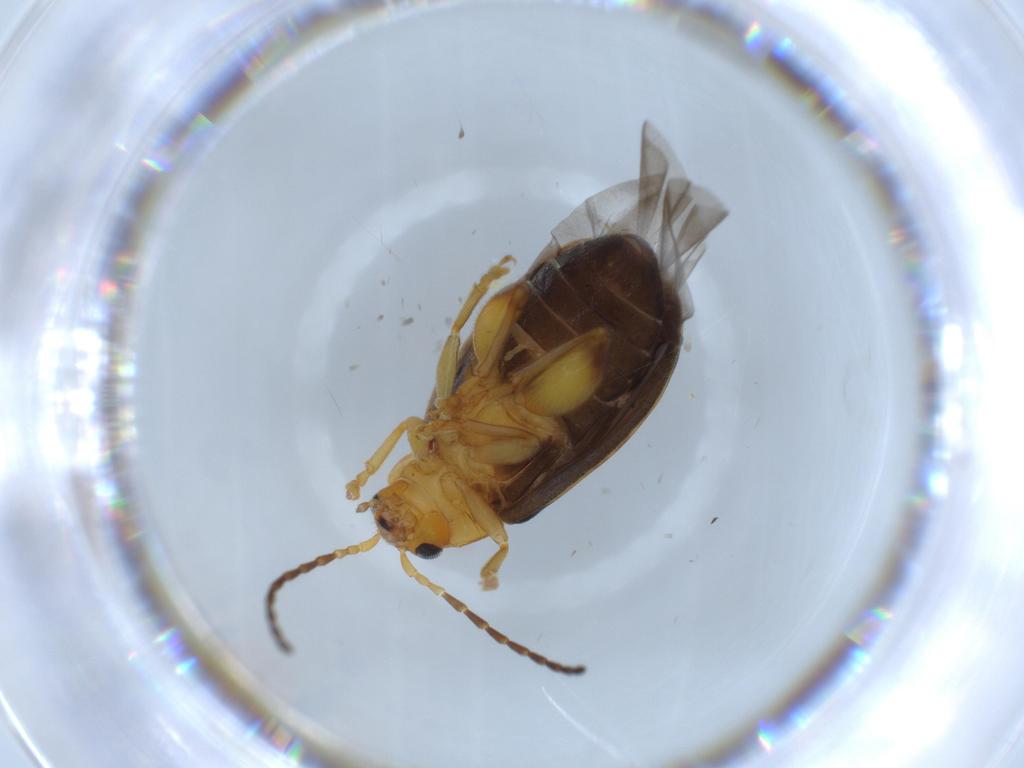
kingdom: Animalia
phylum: Arthropoda
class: Insecta
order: Coleoptera
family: Chrysomelidae
